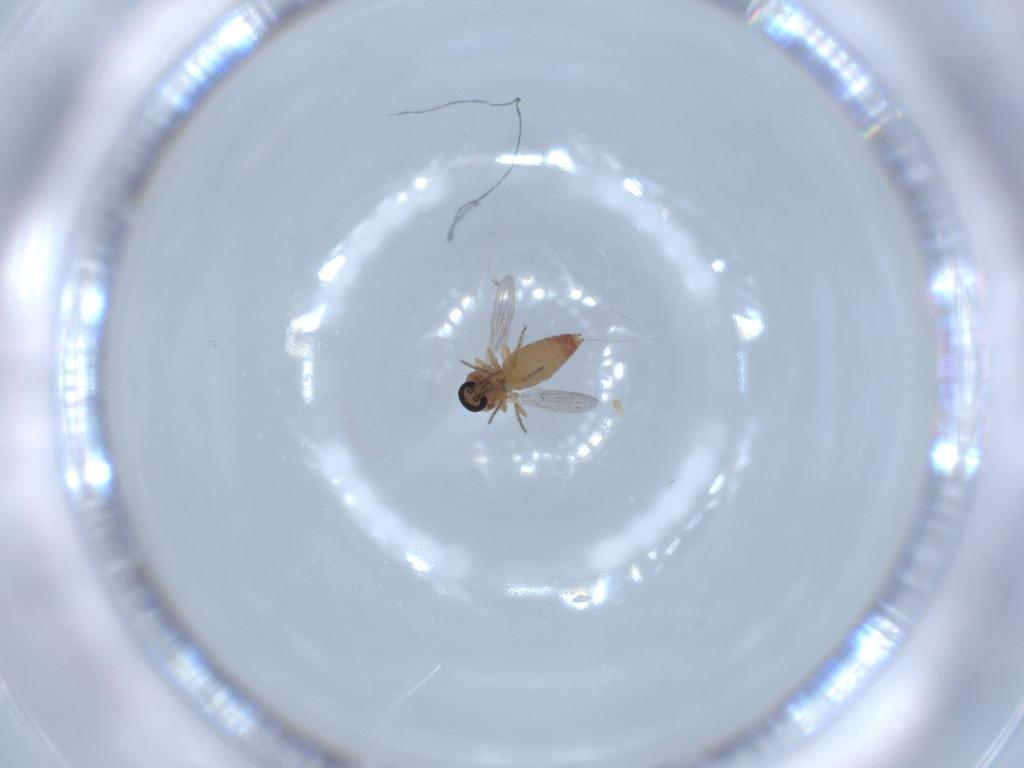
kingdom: Animalia
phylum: Arthropoda
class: Insecta
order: Diptera
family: Ceratopogonidae
